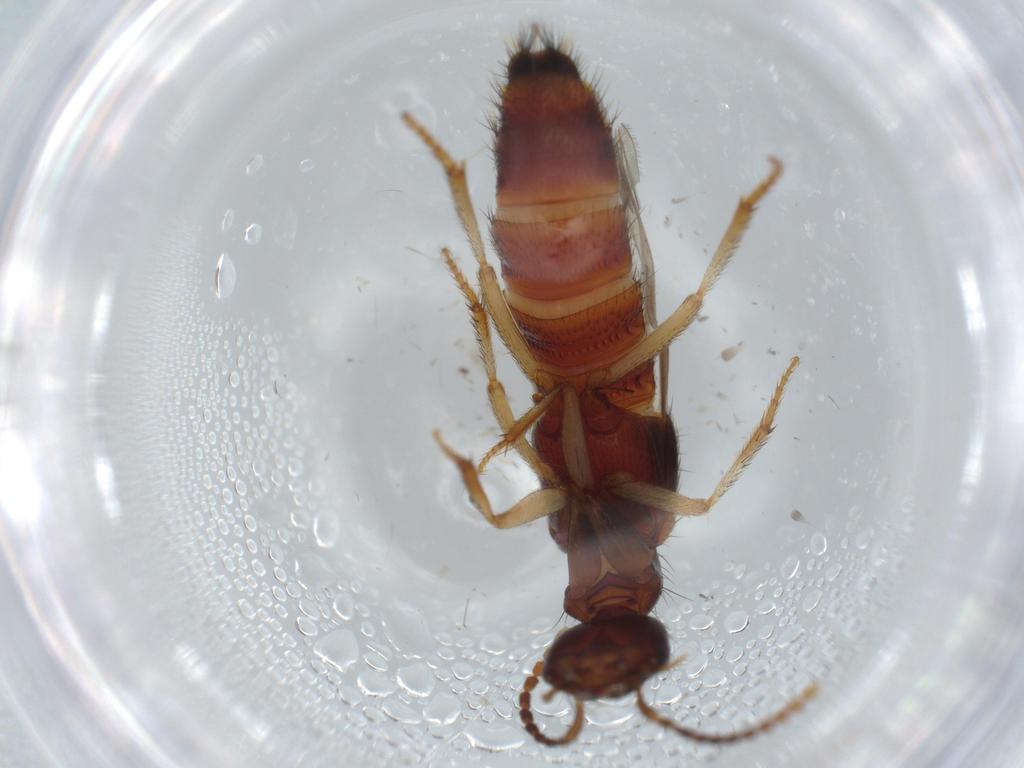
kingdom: Animalia
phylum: Arthropoda
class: Insecta
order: Coleoptera
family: Staphylinidae
